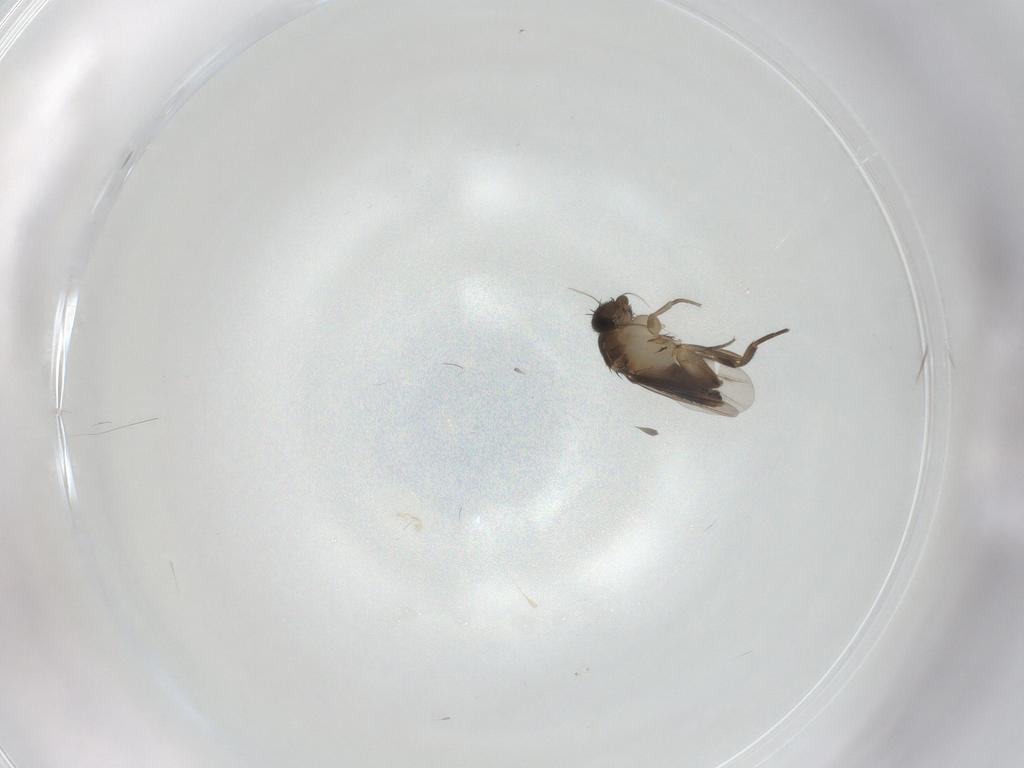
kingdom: Animalia
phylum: Arthropoda
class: Insecta
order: Diptera
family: Phoridae
